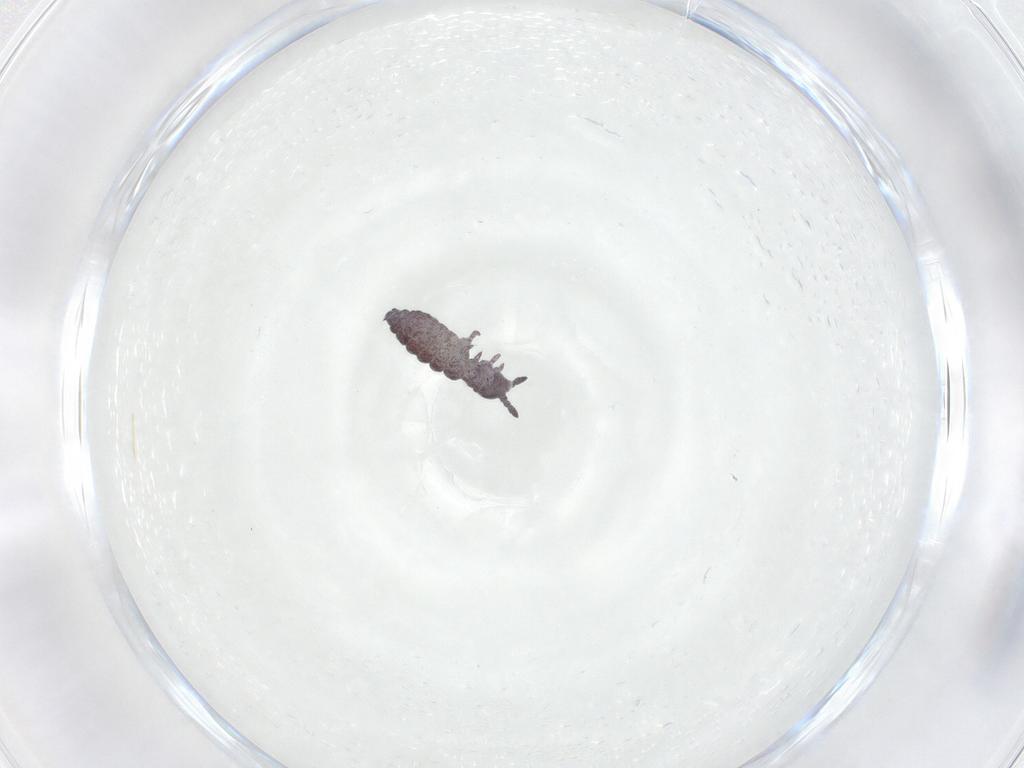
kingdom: Animalia
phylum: Arthropoda
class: Collembola
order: Poduromorpha
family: Hypogastruridae
